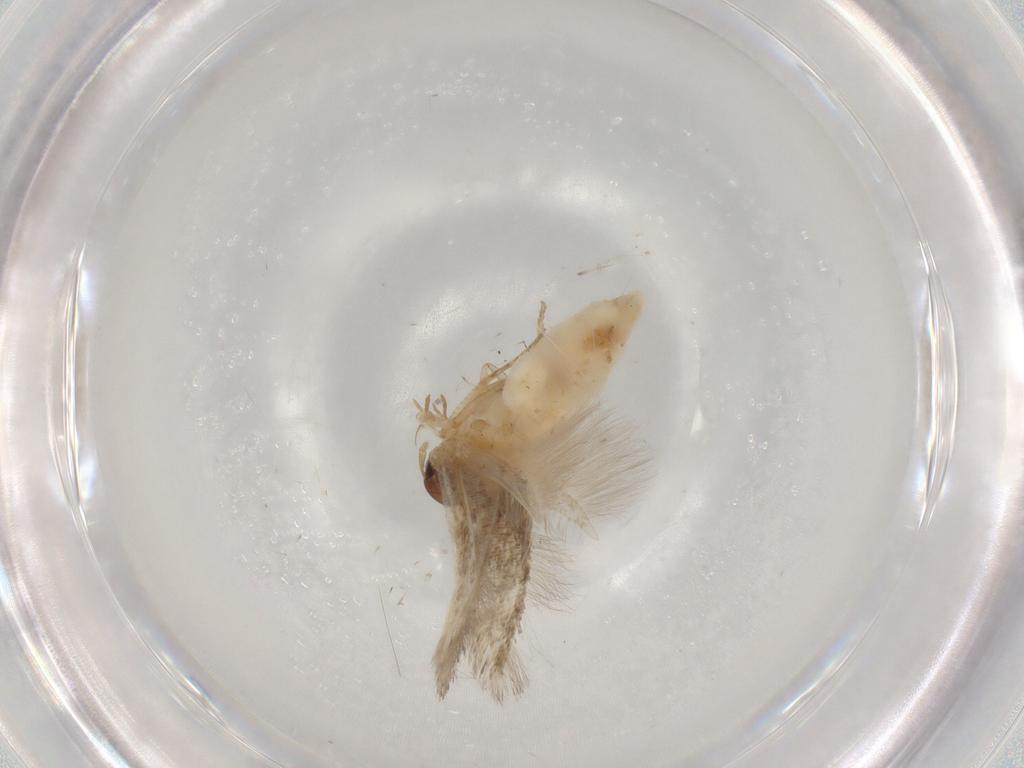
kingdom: Animalia
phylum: Arthropoda
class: Insecta
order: Lepidoptera
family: Cosmopterigidae
